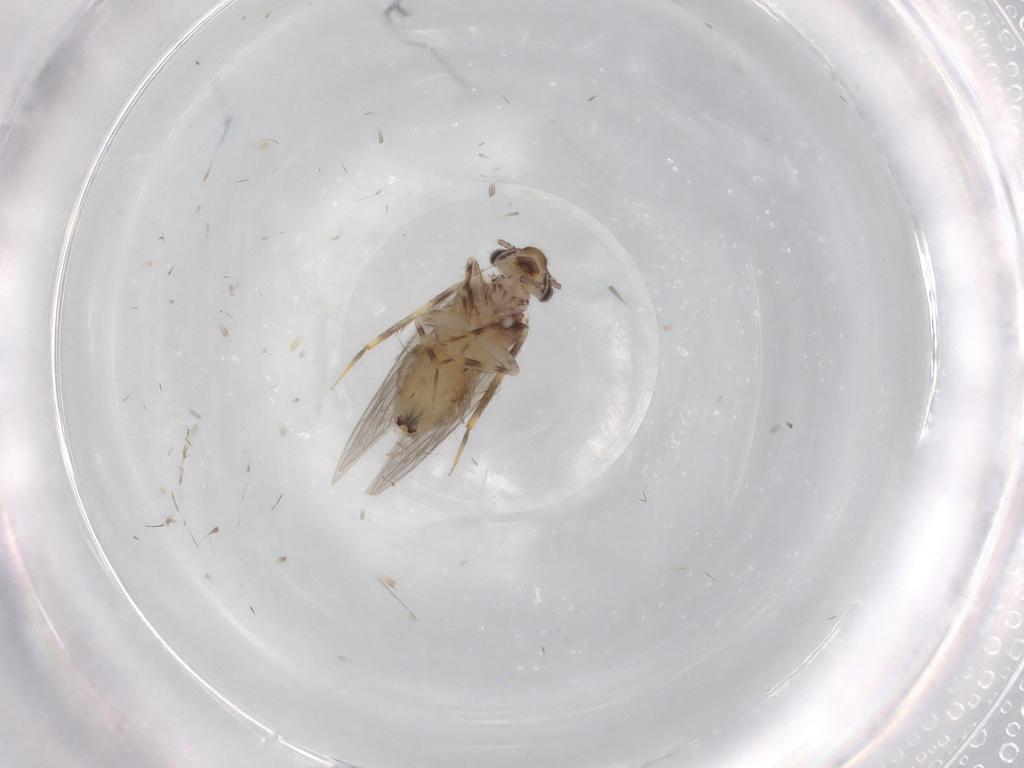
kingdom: Animalia
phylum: Arthropoda
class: Insecta
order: Psocodea
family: Lepidopsocidae
